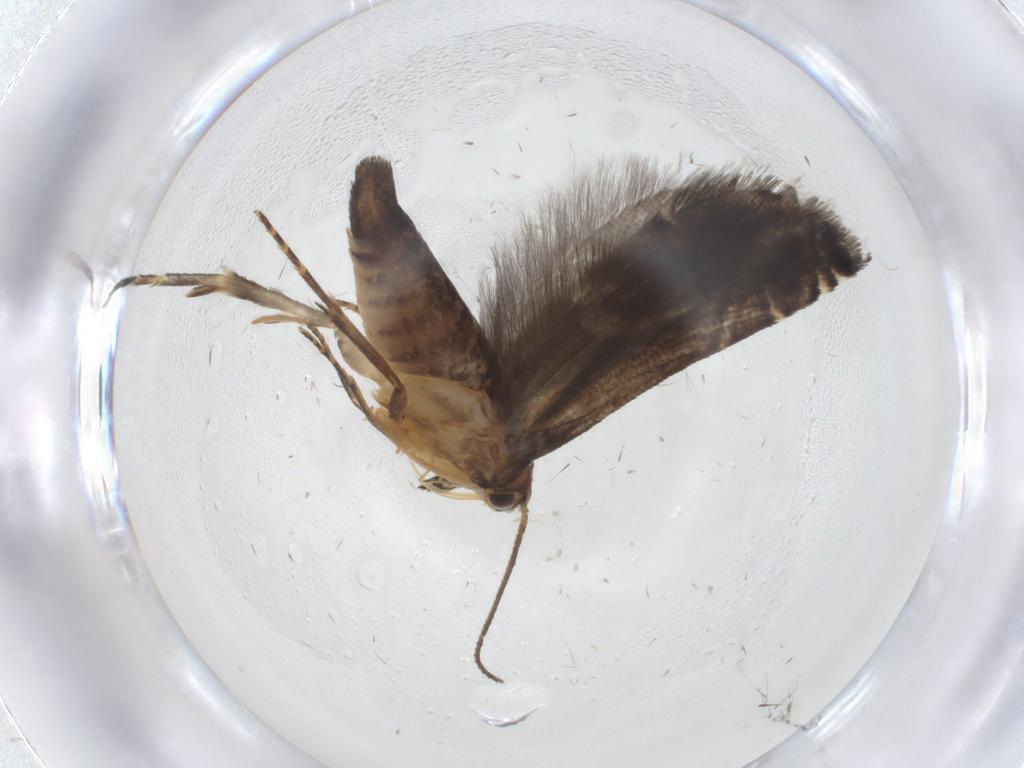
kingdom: Animalia
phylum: Arthropoda
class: Insecta
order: Lepidoptera
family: Glyphipterigidae
